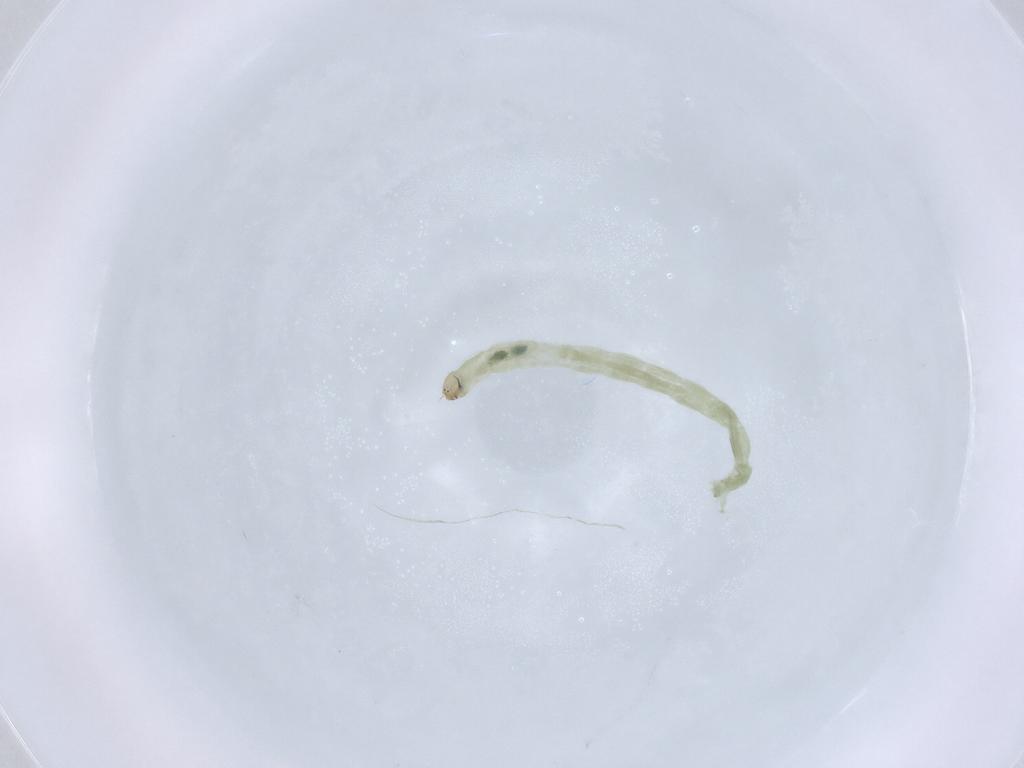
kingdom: Animalia
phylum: Arthropoda
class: Insecta
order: Diptera
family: Chironomidae
